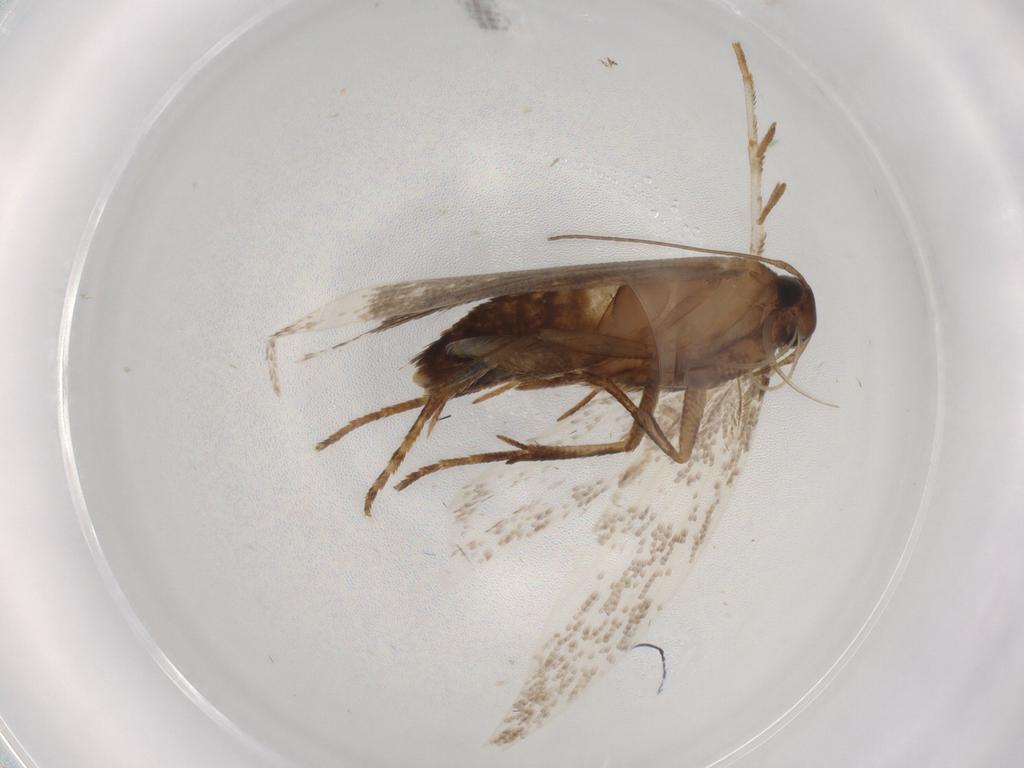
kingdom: Animalia
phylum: Arthropoda
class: Insecta
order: Lepidoptera
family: Gelechiidae
